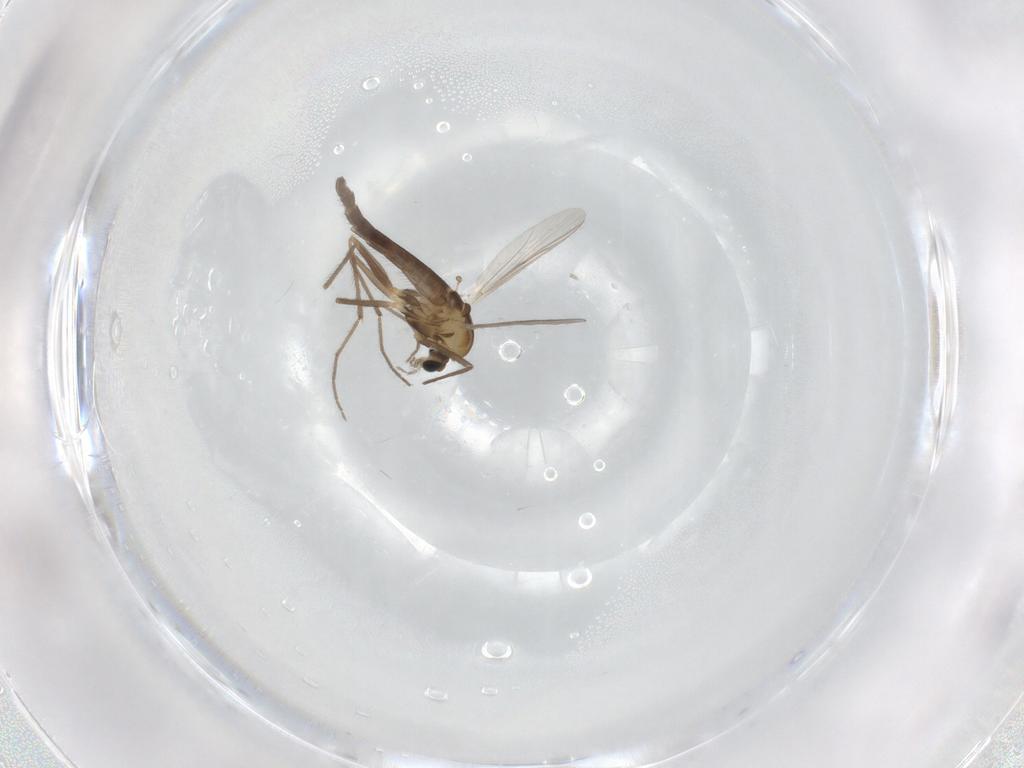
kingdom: Animalia
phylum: Arthropoda
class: Insecta
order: Diptera
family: Chironomidae
